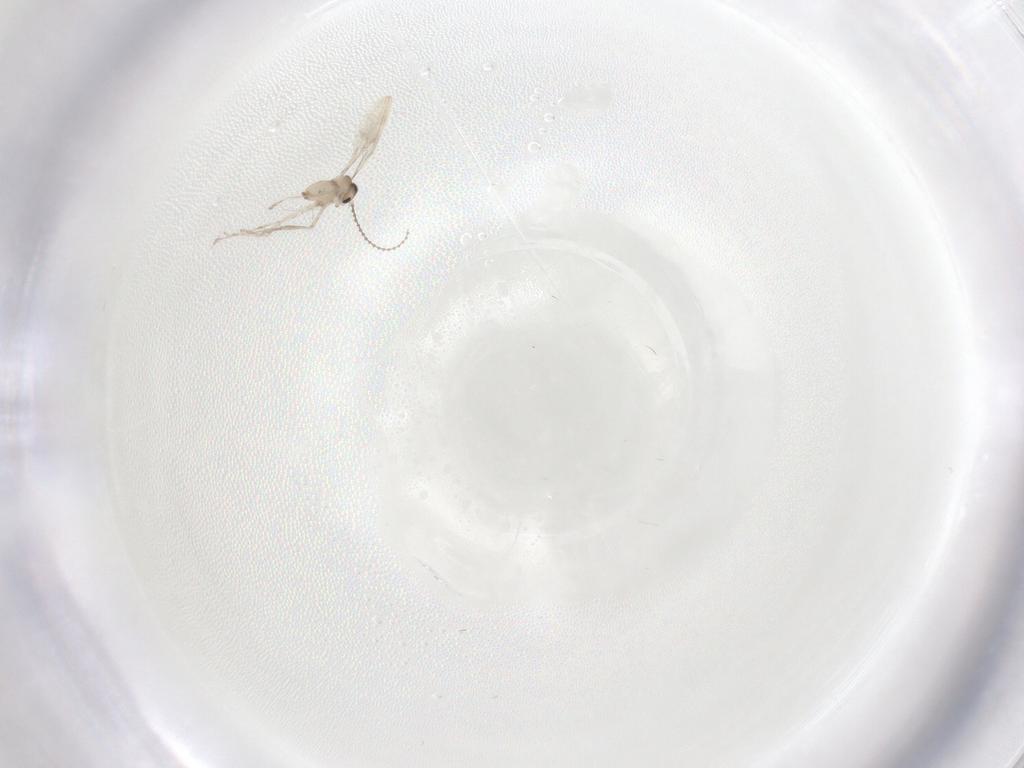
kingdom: Animalia
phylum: Arthropoda
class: Insecta
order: Diptera
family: Cecidomyiidae
